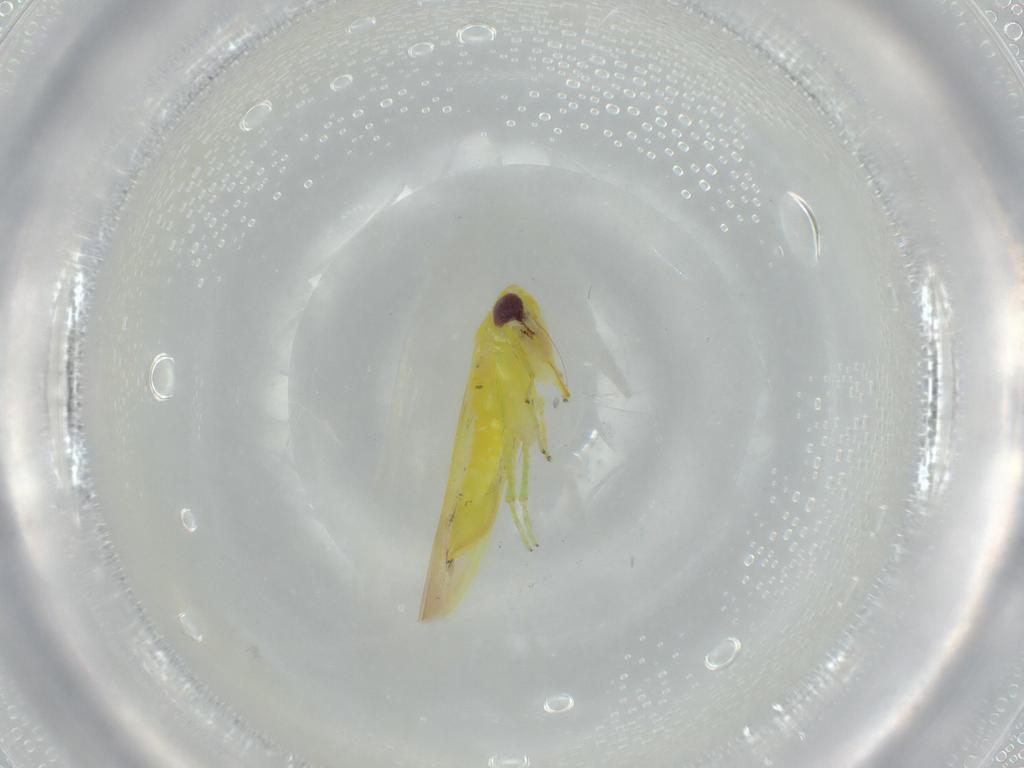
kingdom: Animalia
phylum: Arthropoda
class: Insecta
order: Hemiptera
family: Cicadellidae
